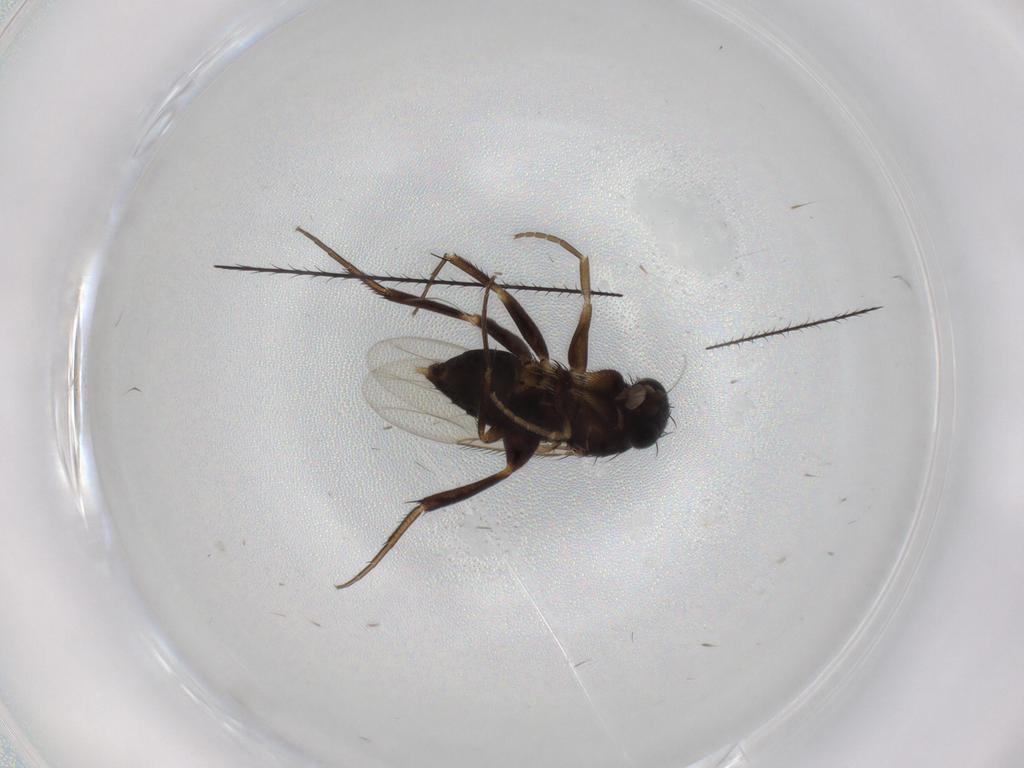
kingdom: Animalia
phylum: Arthropoda
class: Insecta
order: Diptera
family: Phoridae
